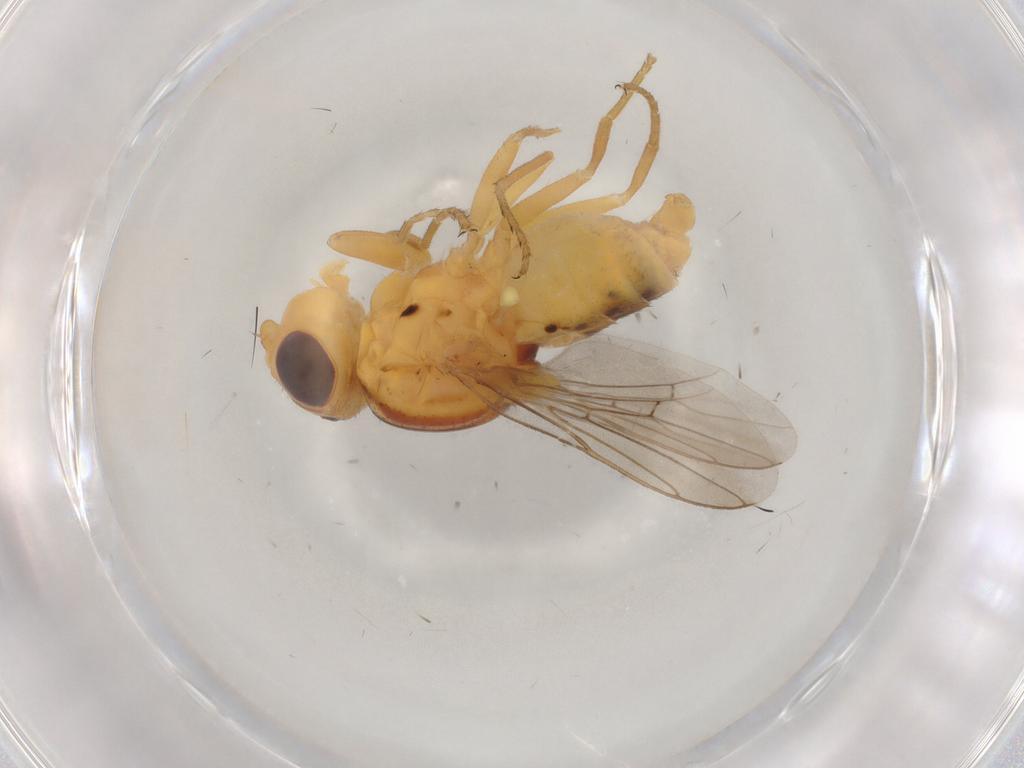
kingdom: Animalia
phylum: Arthropoda
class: Insecta
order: Diptera
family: Chloropidae
